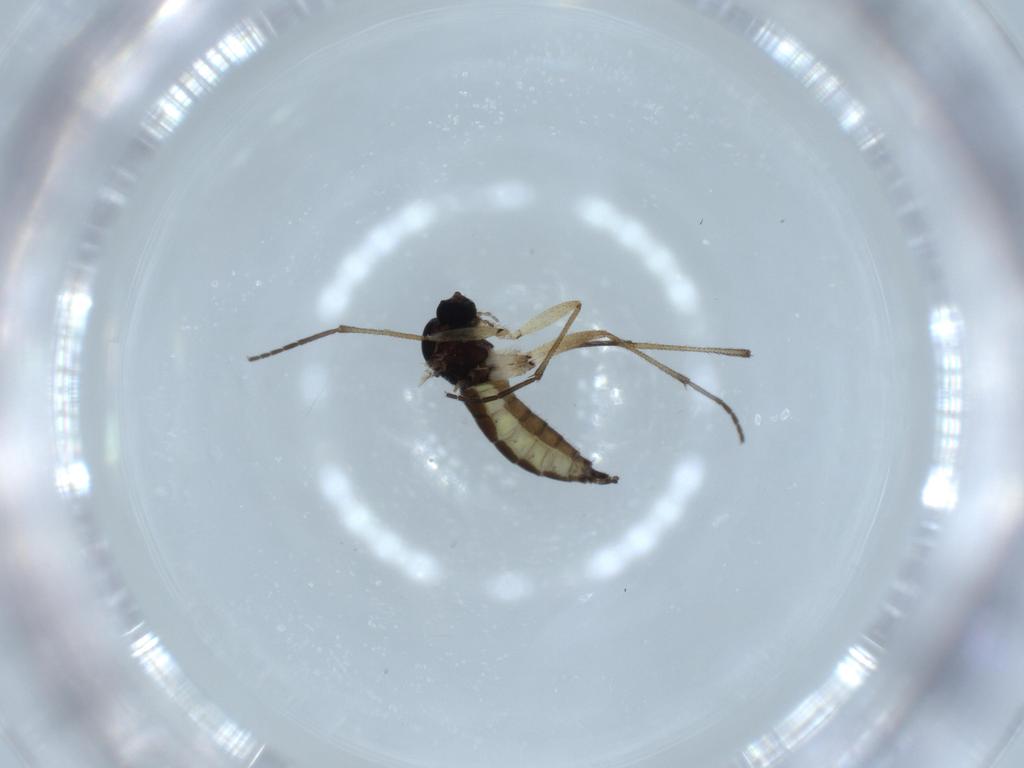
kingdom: Animalia
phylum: Arthropoda
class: Insecta
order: Diptera
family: Sciaridae
